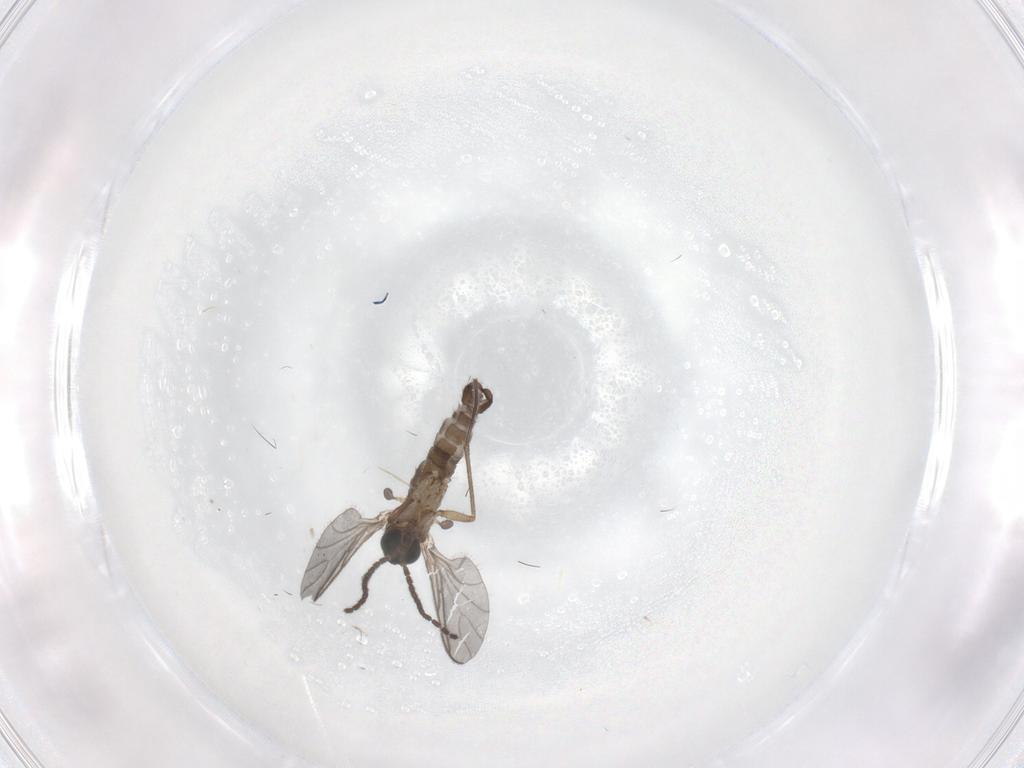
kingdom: Animalia
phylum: Arthropoda
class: Insecta
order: Diptera
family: Sciaridae
